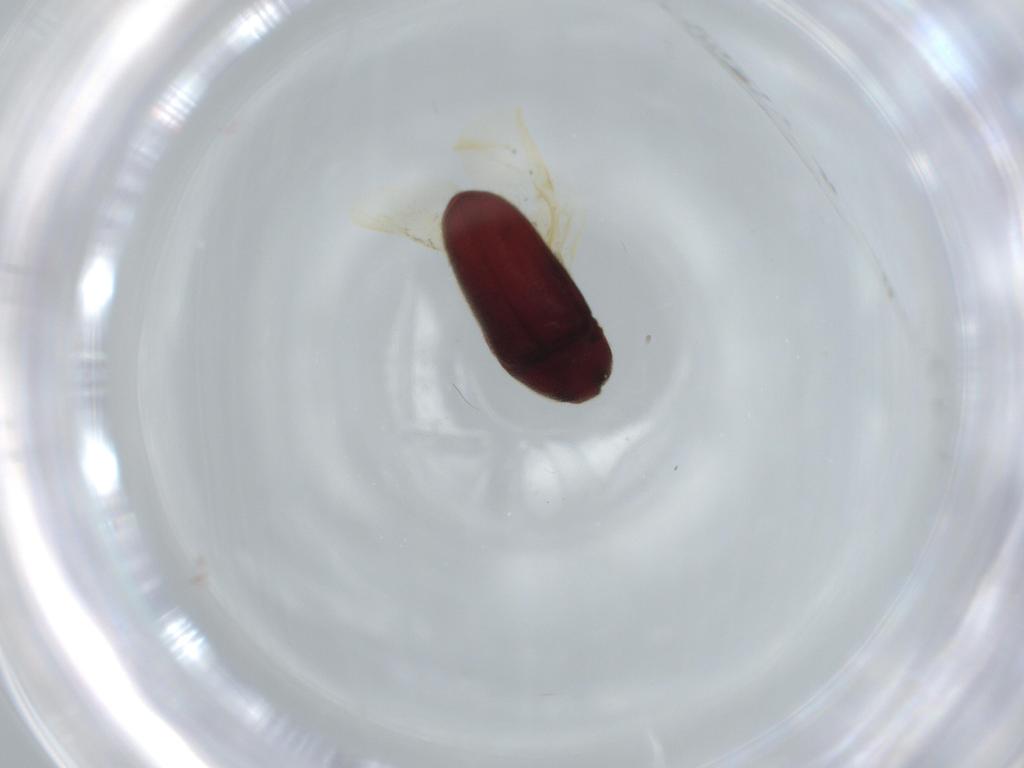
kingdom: Animalia
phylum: Arthropoda
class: Insecta
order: Coleoptera
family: Throscidae
